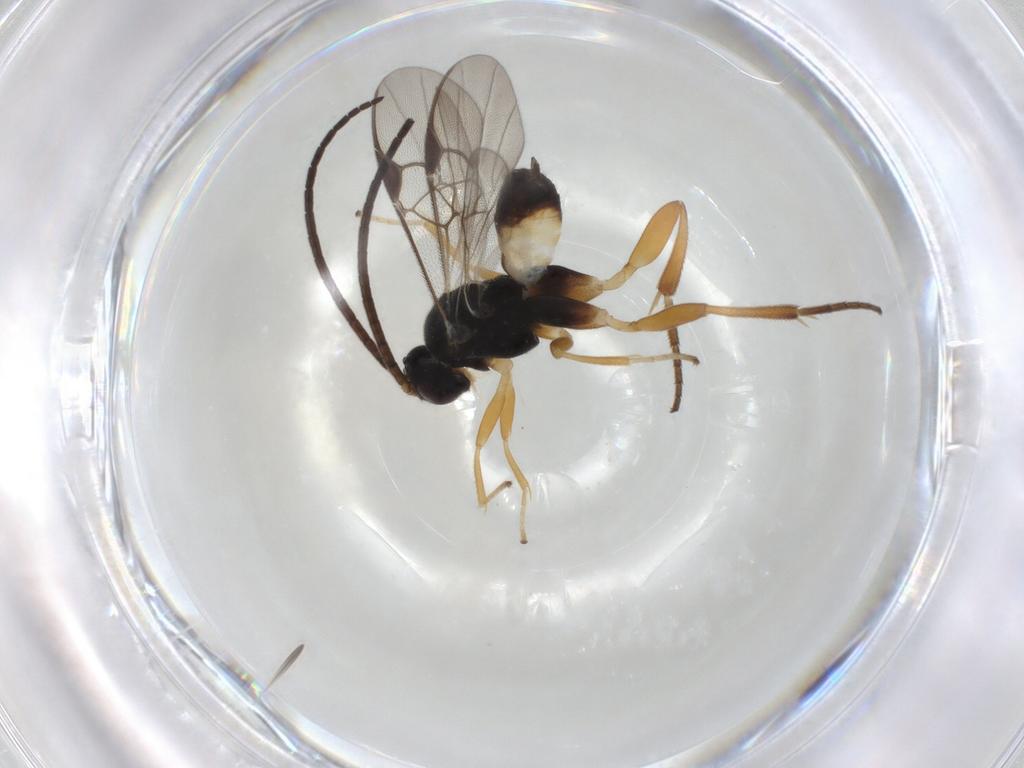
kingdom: Animalia
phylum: Arthropoda
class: Insecta
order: Hymenoptera
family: Braconidae
